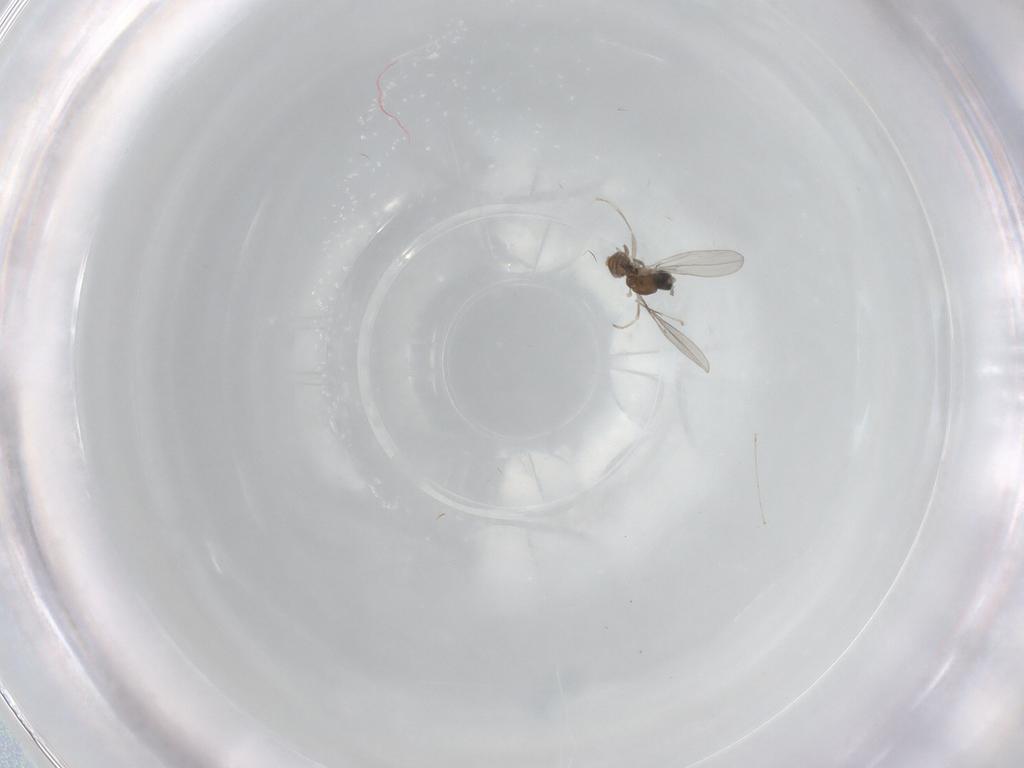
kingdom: Animalia
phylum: Arthropoda
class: Insecta
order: Diptera
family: Cecidomyiidae
